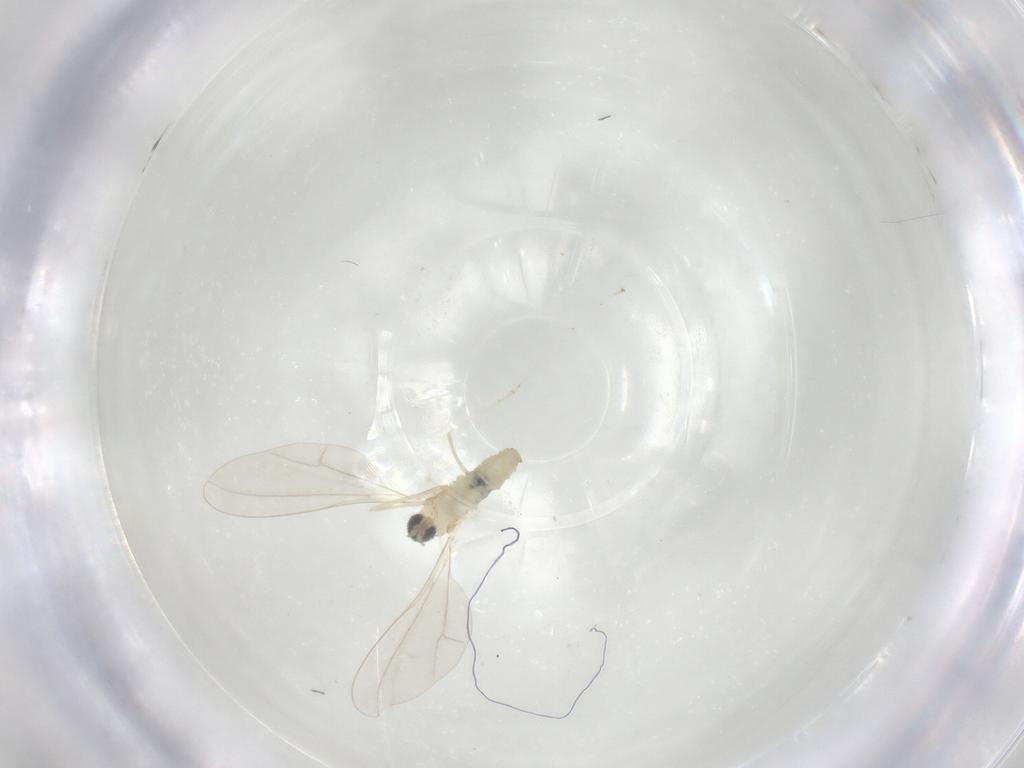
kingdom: Animalia
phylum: Arthropoda
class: Insecta
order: Diptera
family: Cecidomyiidae
